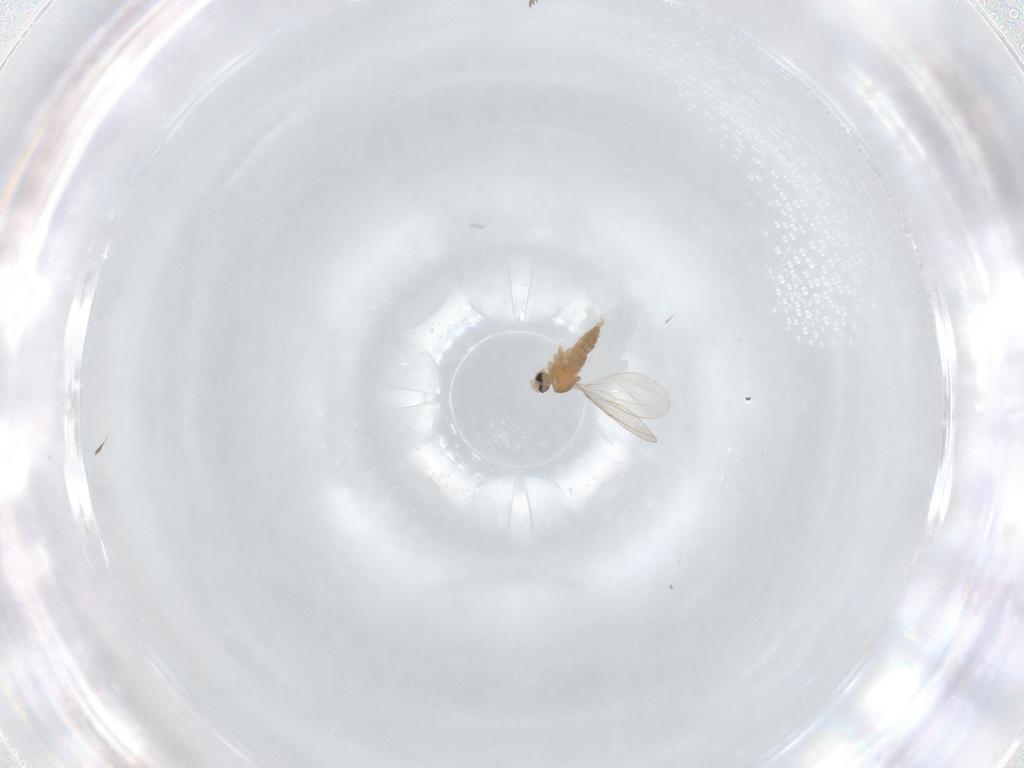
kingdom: Animalia
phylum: Arthropoda
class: Insecta
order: Diptera
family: Cecidomyiidae
